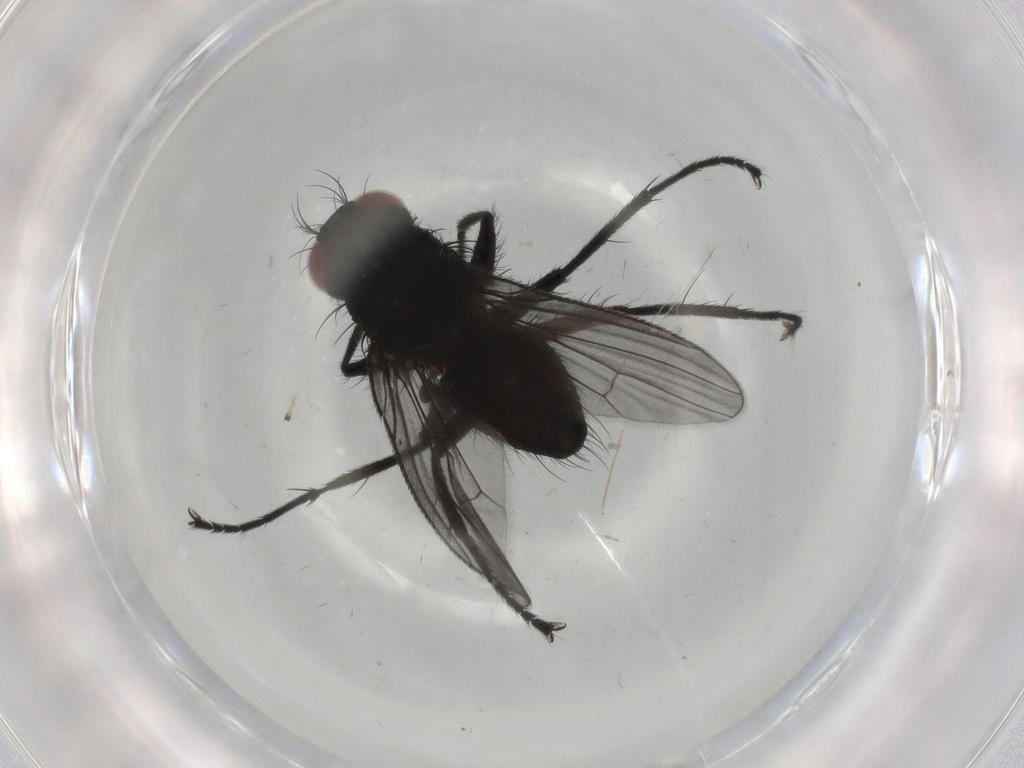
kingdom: Animalia
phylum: Arthropoda
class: Insecta
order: Diptera
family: Muscidae
